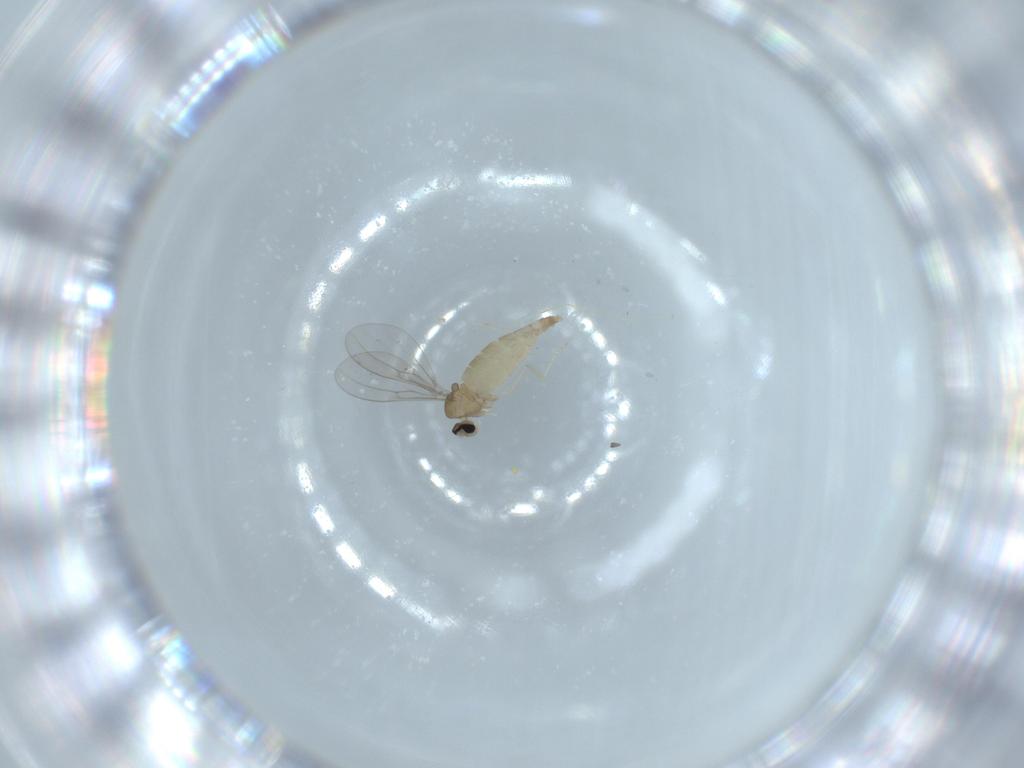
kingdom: Animalia
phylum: Arthropoda
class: Insecta
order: Diptera
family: Cecidomyiidae
